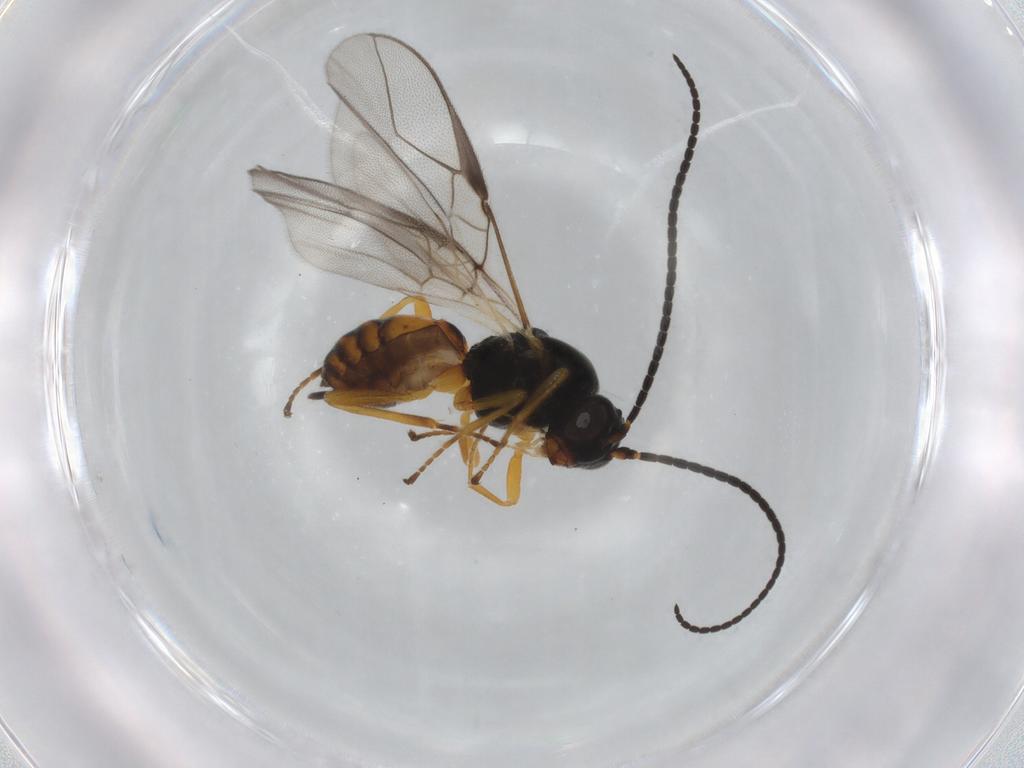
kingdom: Animalia
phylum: Arthropoda
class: Insecta
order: Hymenoptera
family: Braconidae
